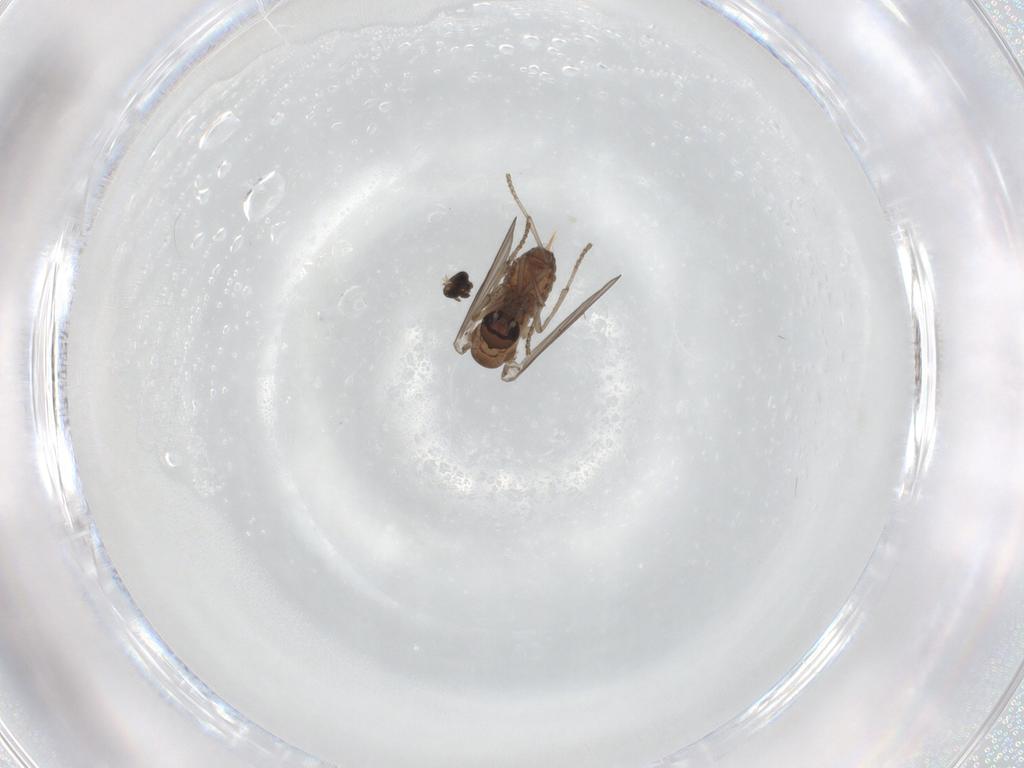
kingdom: Animalia
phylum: Arthropoda
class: Insecta
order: Diptera
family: Psychodidae
